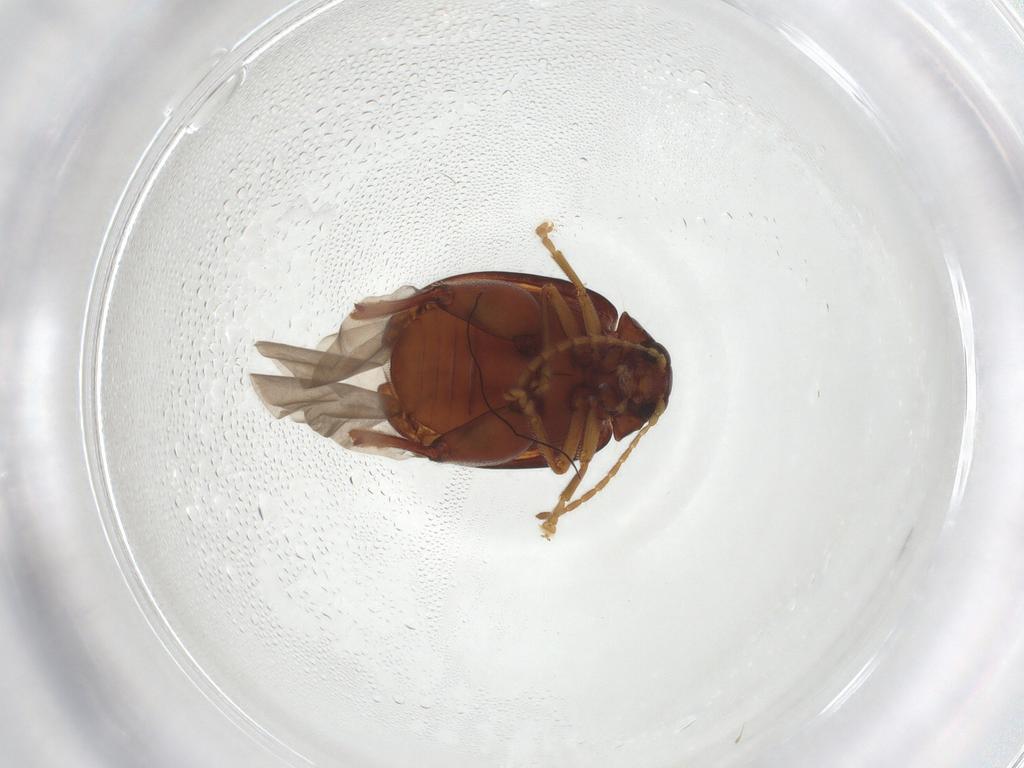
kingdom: Animalia
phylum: Arthropoda
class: Insecta
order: Coleoptera
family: Chrysomelidae
